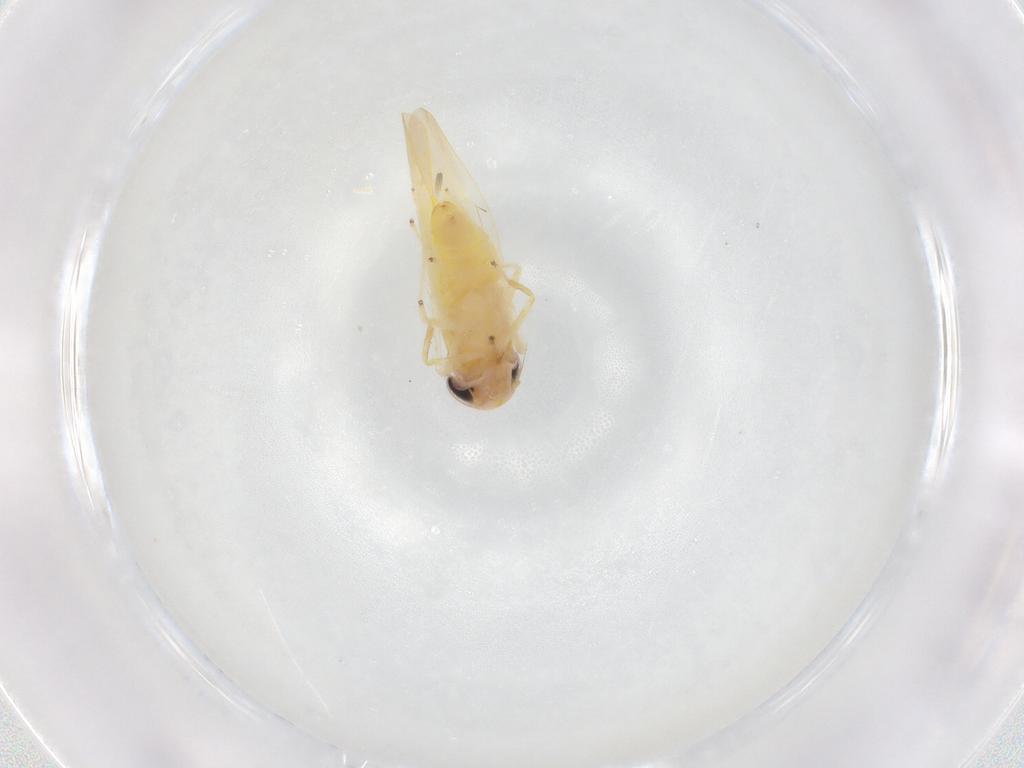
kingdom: Animalia
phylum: Arthropoda
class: Insecta
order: Hemiptera
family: Cicadellidae
